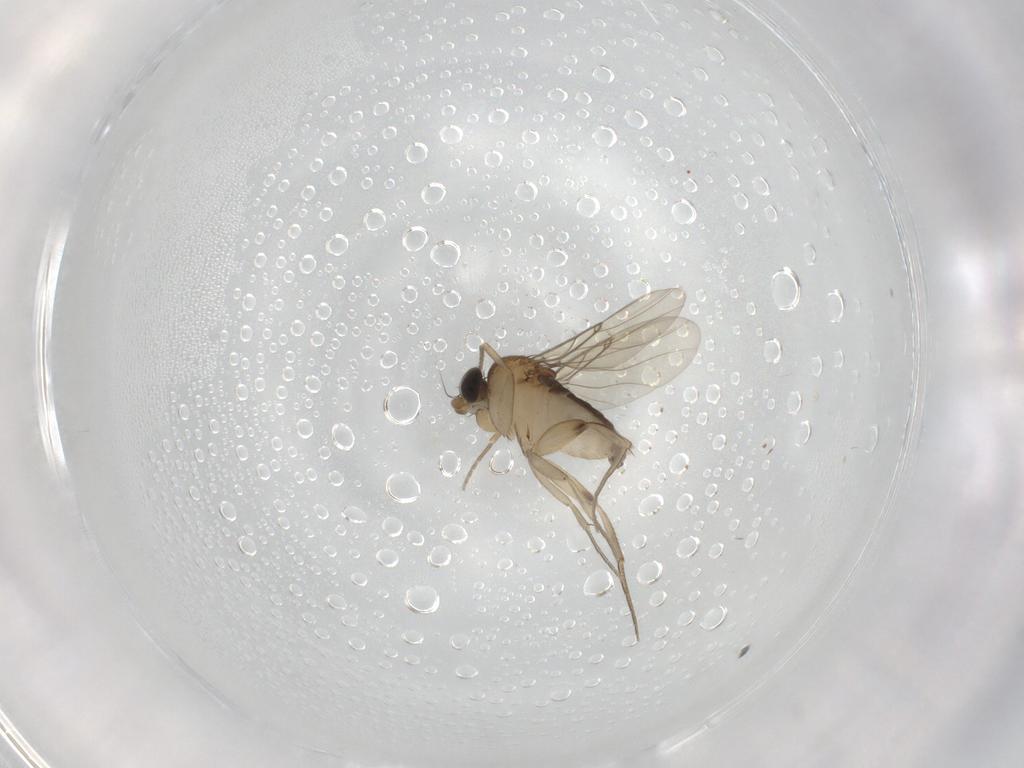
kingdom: Animalia
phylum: Arthropoda
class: Insecta
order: Diptera
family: Phoridae
